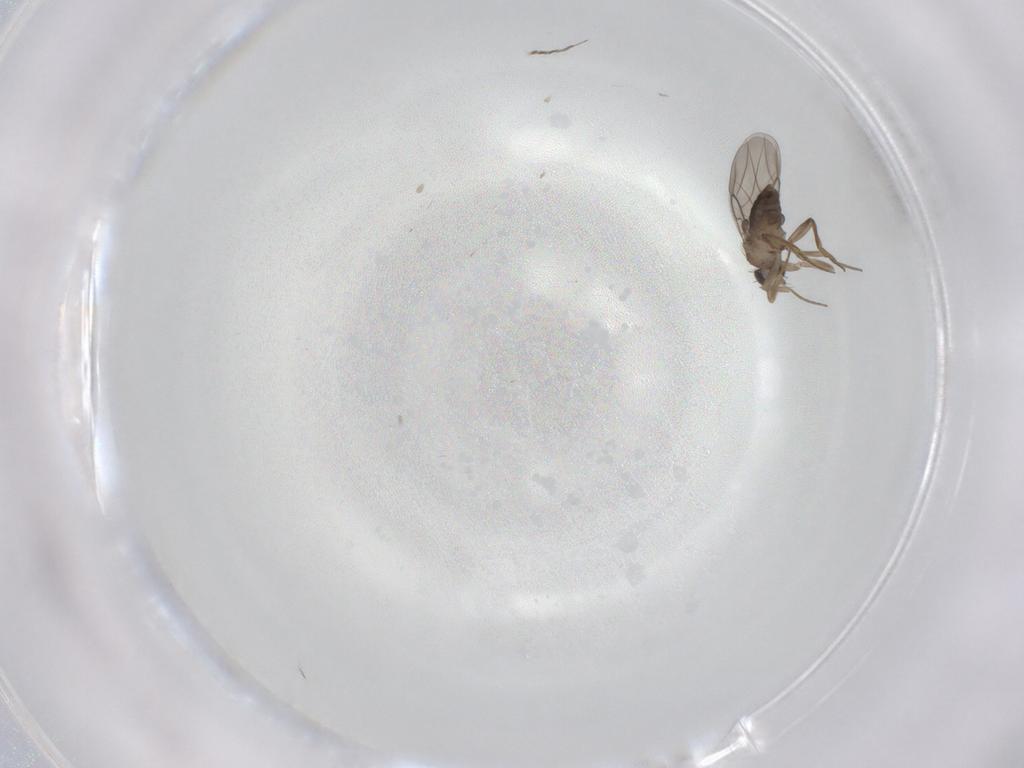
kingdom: Animalia
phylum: Arthropoda
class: Insecta
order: Diptera
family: Phoridae
